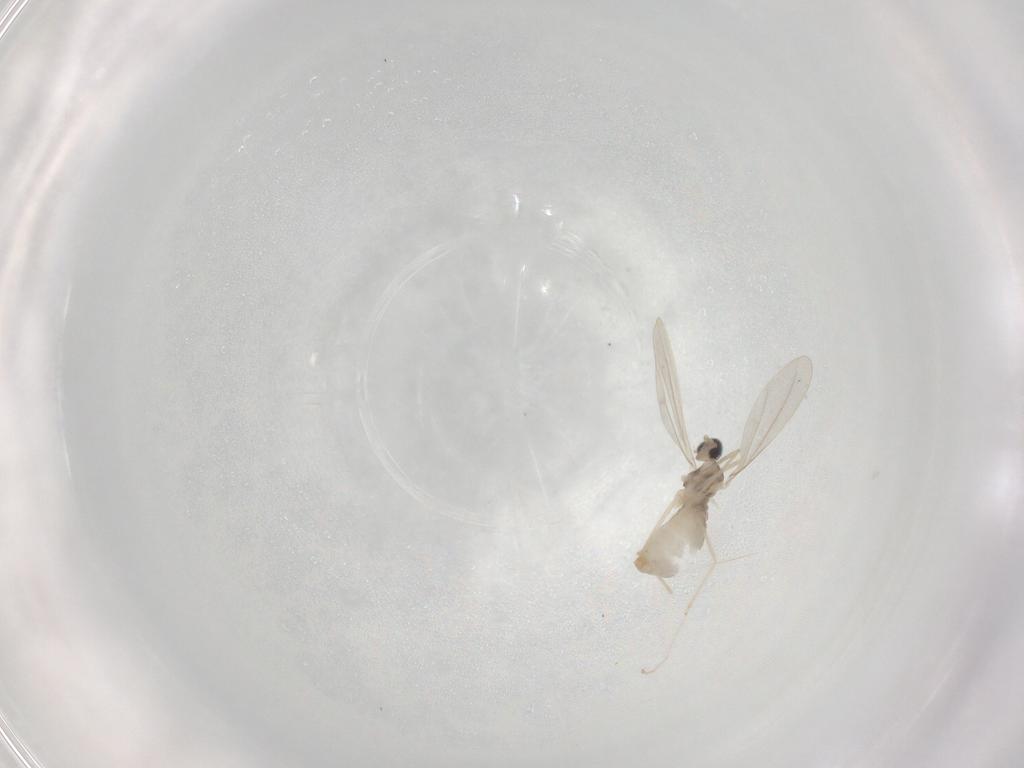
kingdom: Animalia
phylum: Arthropoda
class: Insecta
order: Diptera
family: Cecidomyiidae
